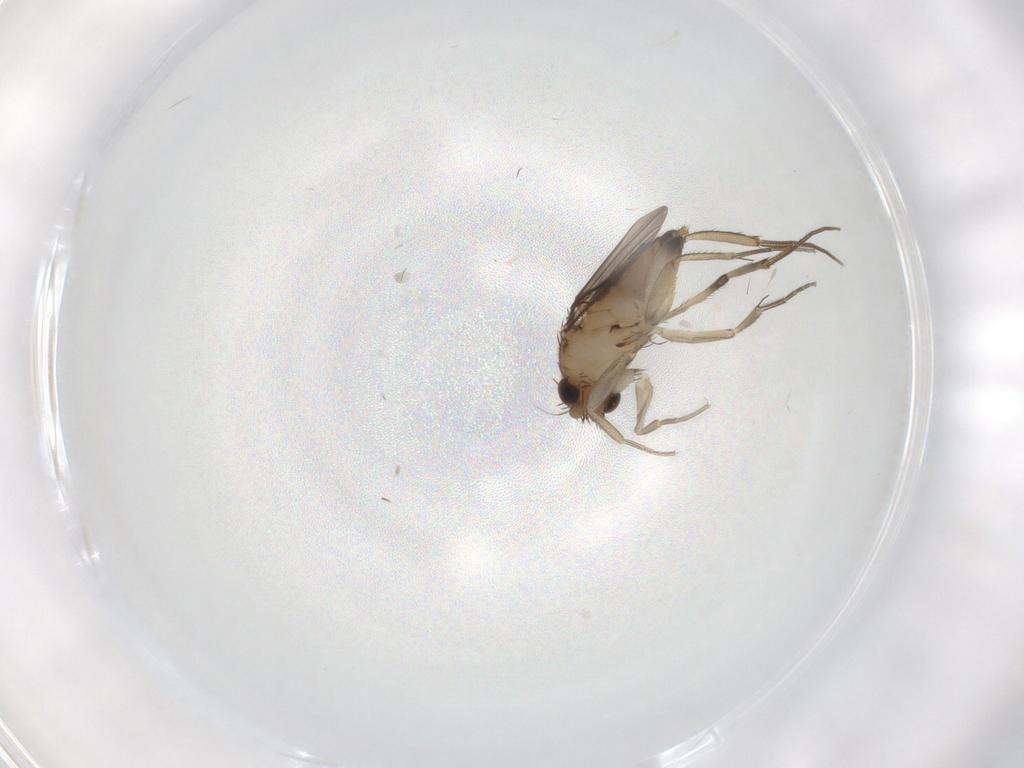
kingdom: Animalia
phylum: Arthropoda
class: Insecta
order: Diptera
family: Phoridae
